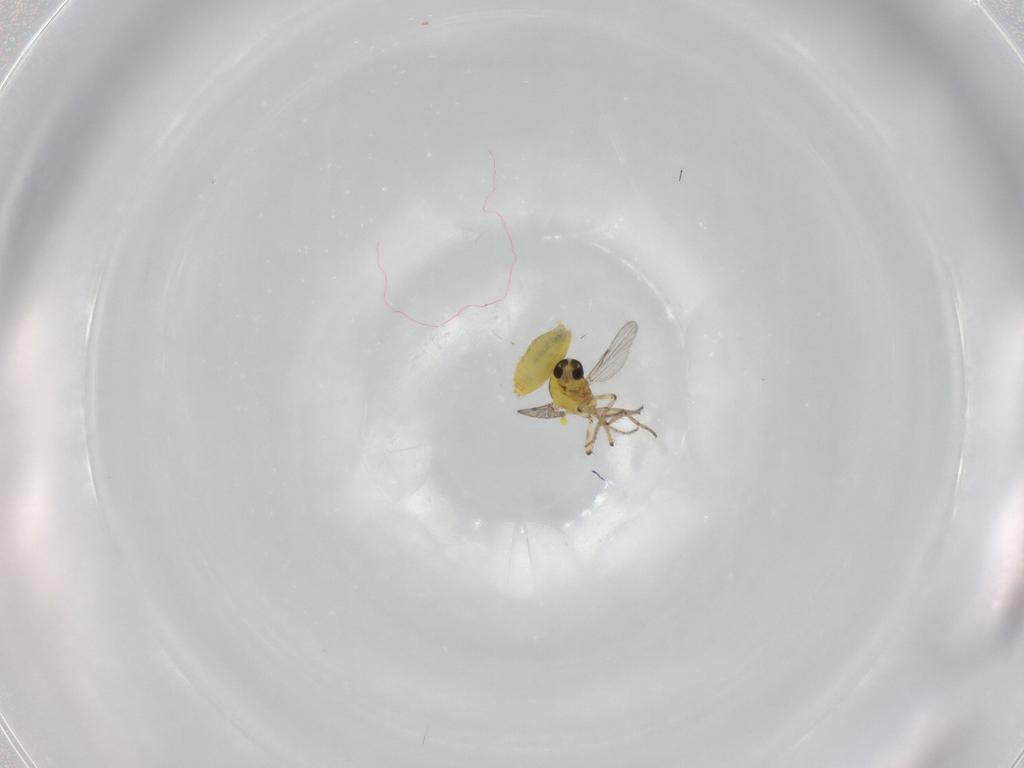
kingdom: Animalia
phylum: Arthropoda
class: Insecta
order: Diptera
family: Ceratopogonidae
